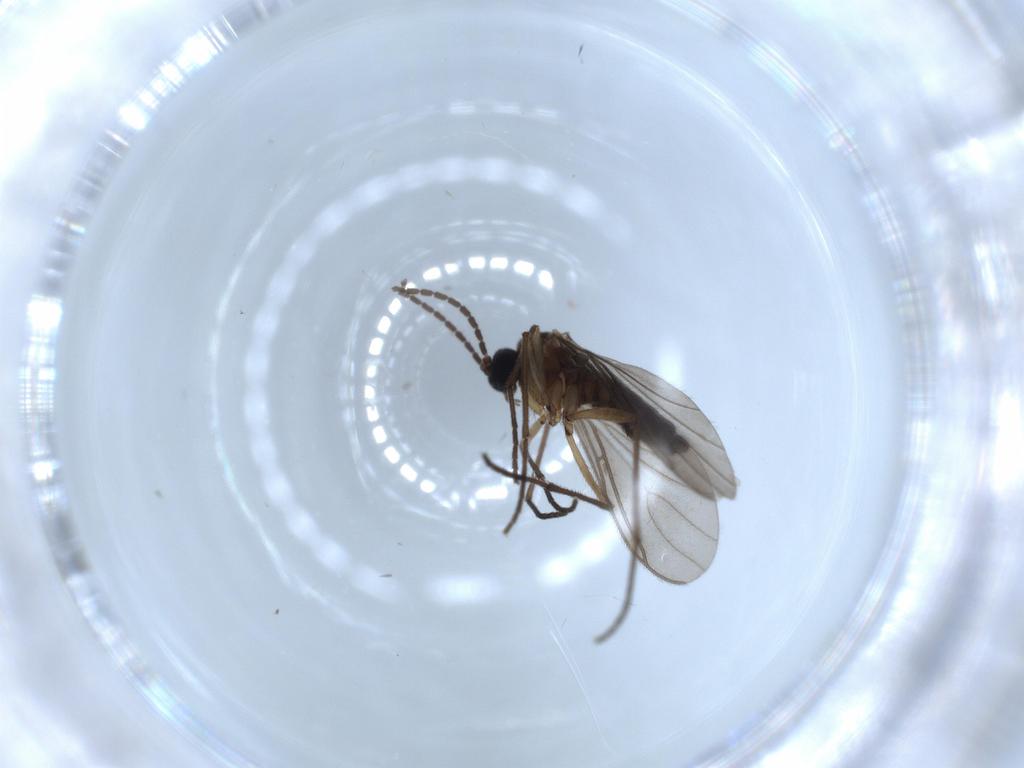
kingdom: Animalia
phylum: Arthropoda
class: Insecta
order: Diptera
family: Sciaridae
